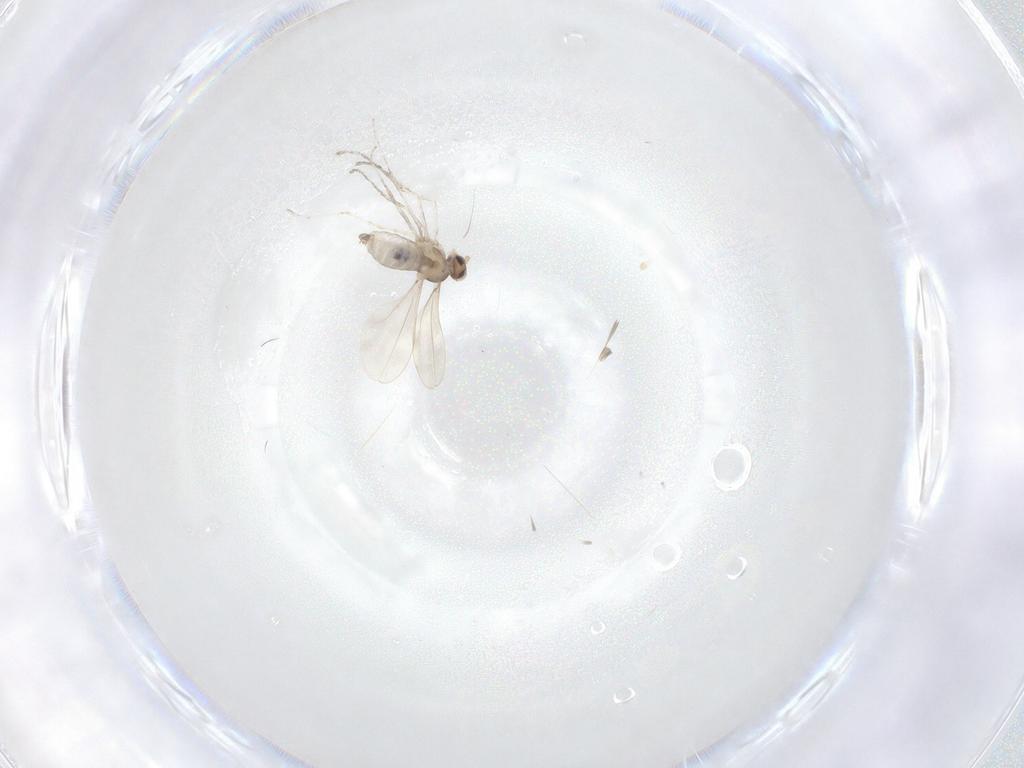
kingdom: Animalia
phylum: Arthropoda
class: Insecta
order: Diptera
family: Cecidomyiidae
